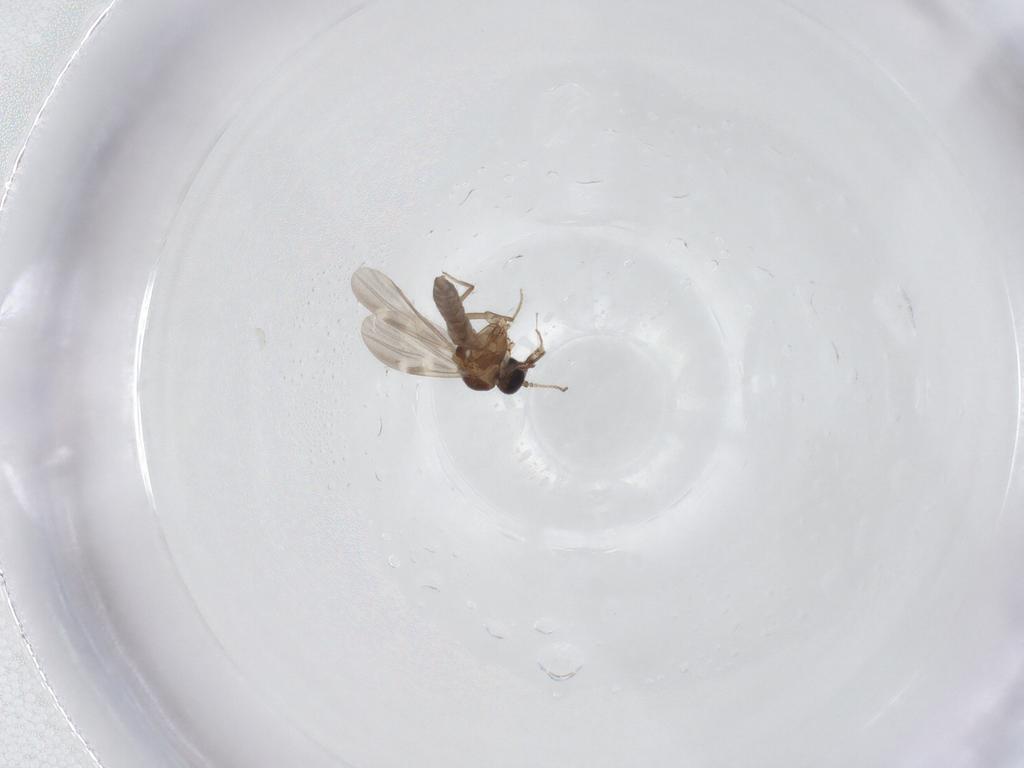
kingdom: Animalia
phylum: Arthropoda
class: Insecta
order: Diptera
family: Ceratopogonidae
